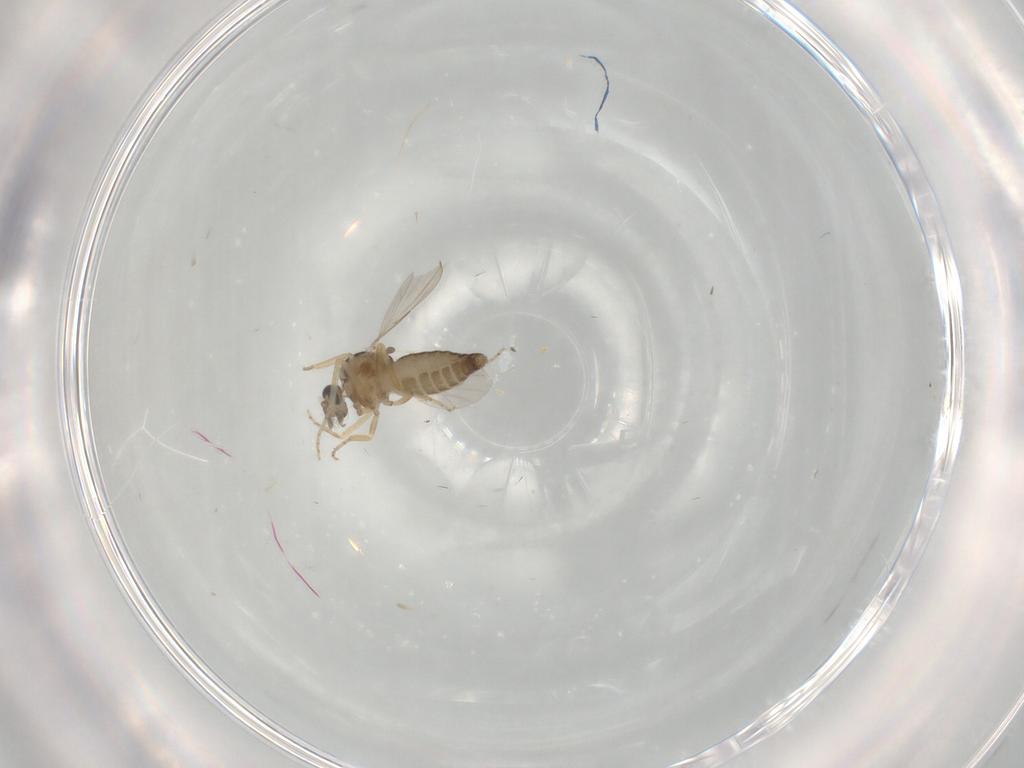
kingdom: Animalia
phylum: Arthropoda
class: Insecta
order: Diptera
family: Ceratopogonidae
